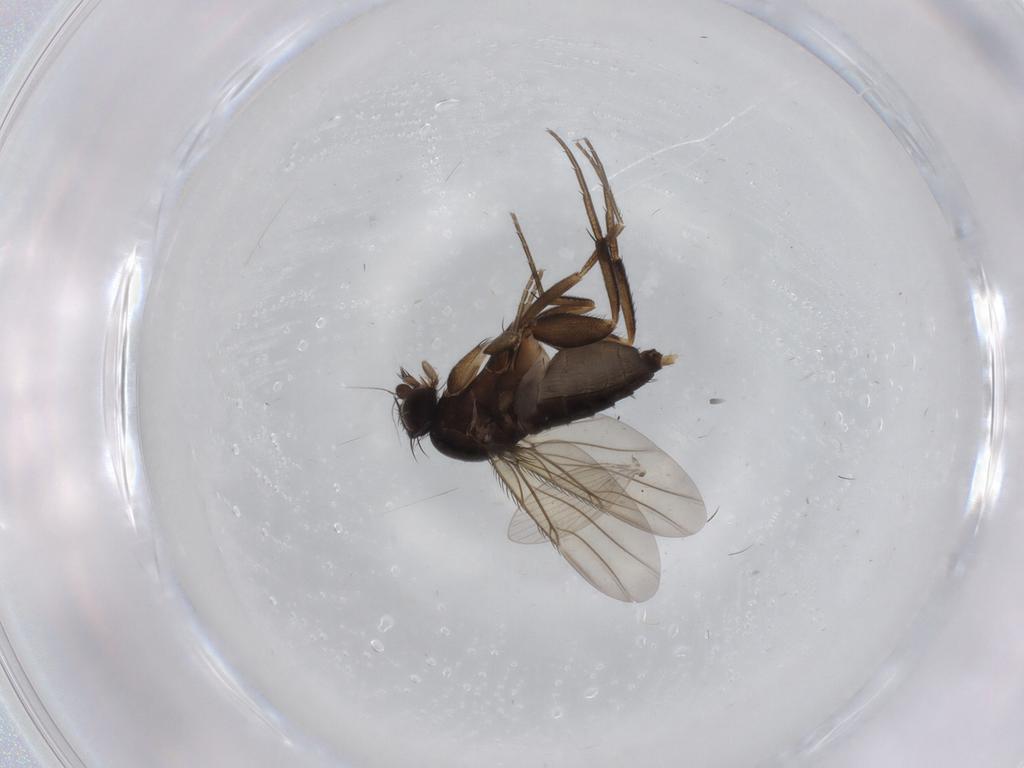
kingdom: Animalia
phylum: Arthropoda
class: Insecta
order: Diptera
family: Phoridae
